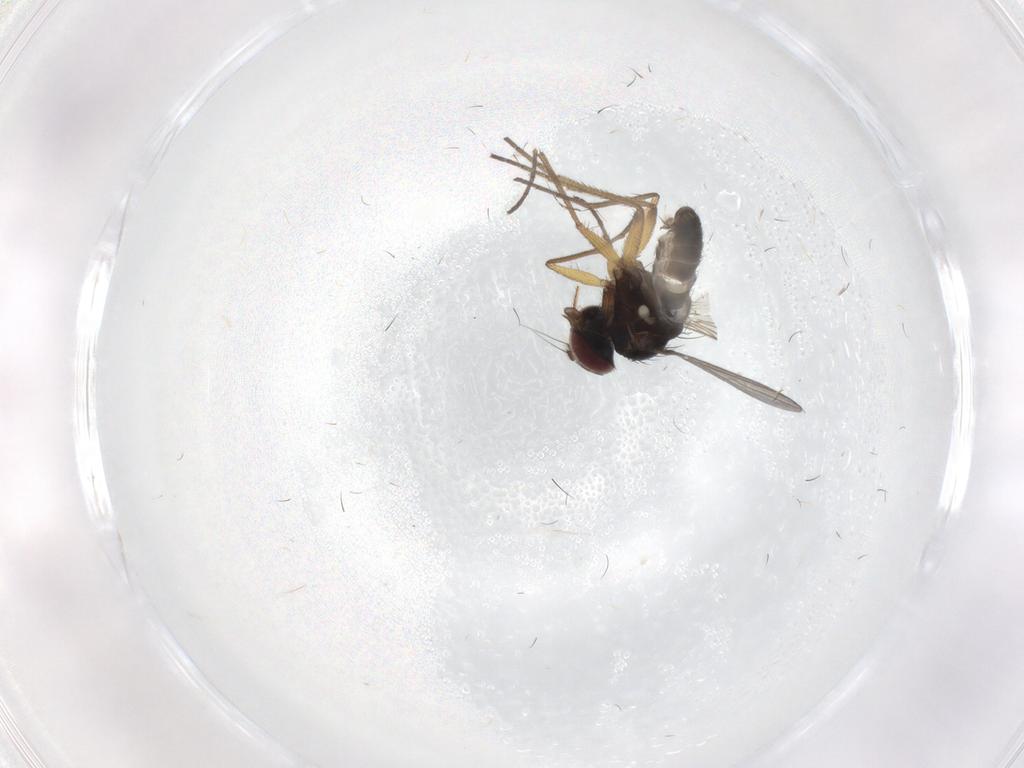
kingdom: Animalia
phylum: Arthropoda
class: Insecta
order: Diptera
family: Dolichopodidae
